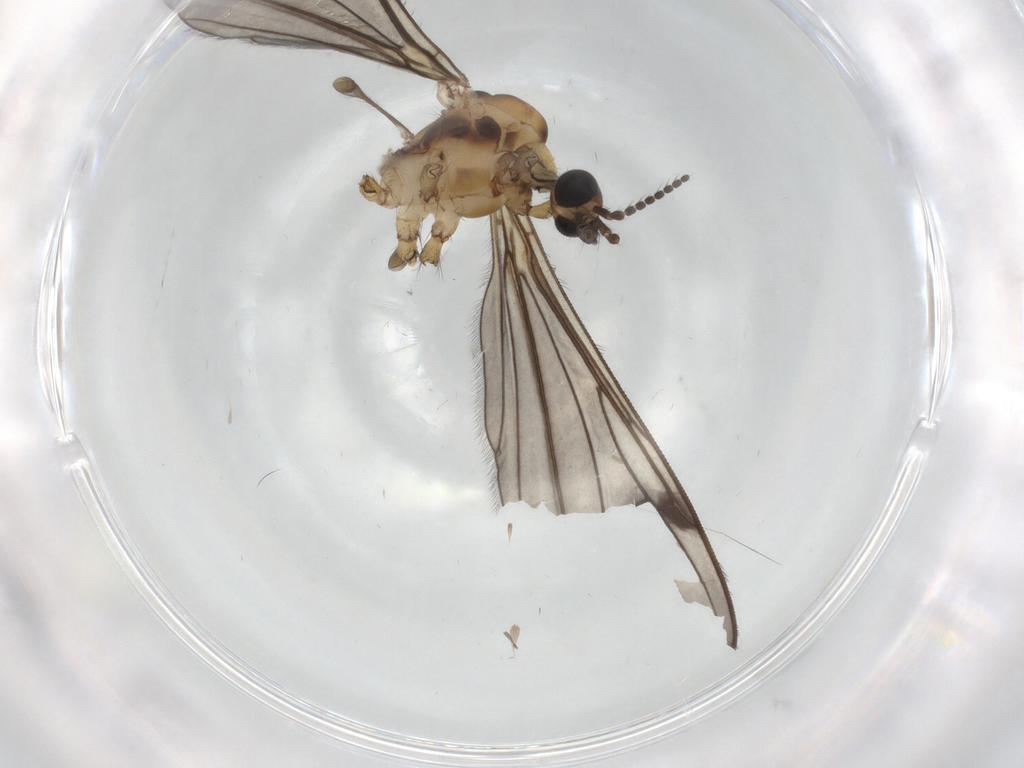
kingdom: Animalia
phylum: Arthropoda
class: Insecta
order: Diptera
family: Limoniidae
